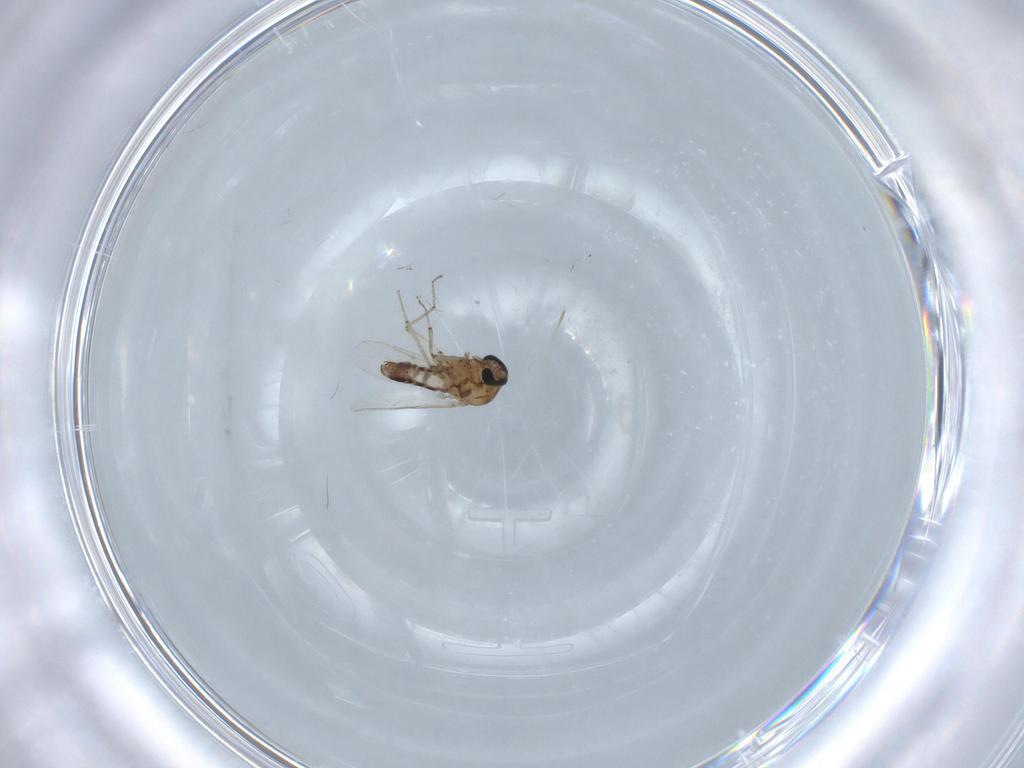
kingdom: Animalia
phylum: Arthropoda
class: Insecta
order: Diptera
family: Ceratopogonidae
